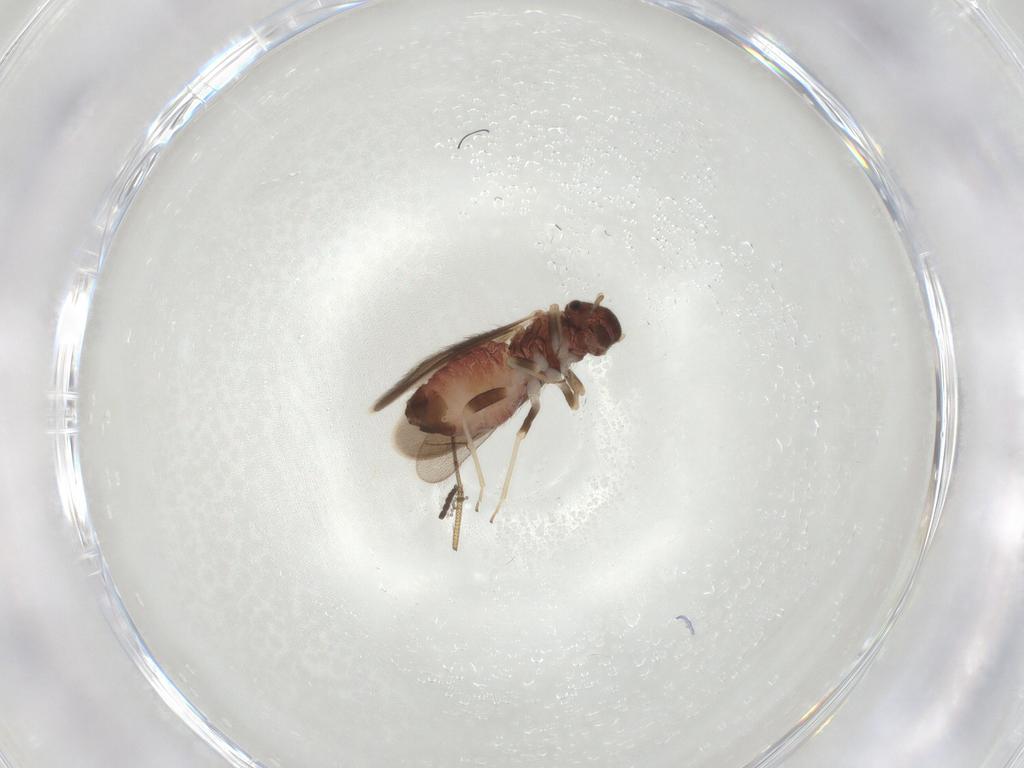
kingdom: Animalia
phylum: Arthropoda
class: Insecta
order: Psocodea
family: Archipsocidae
